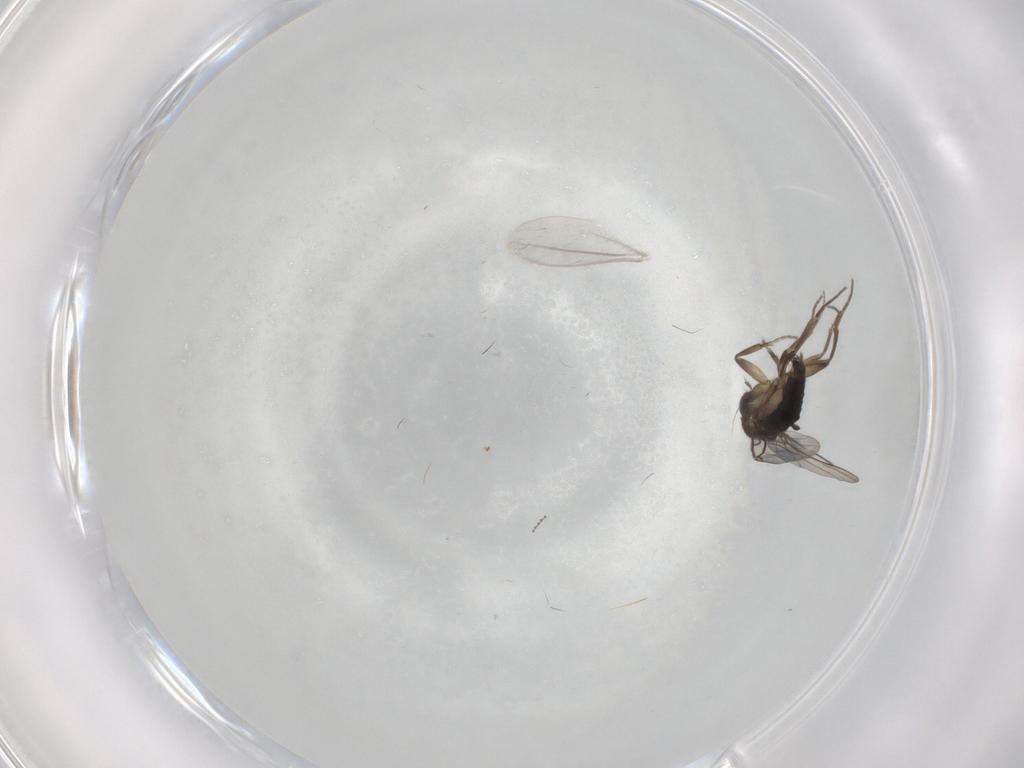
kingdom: Animalia
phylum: Arthropoda
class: Insecta
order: Diptera
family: Phoridae
